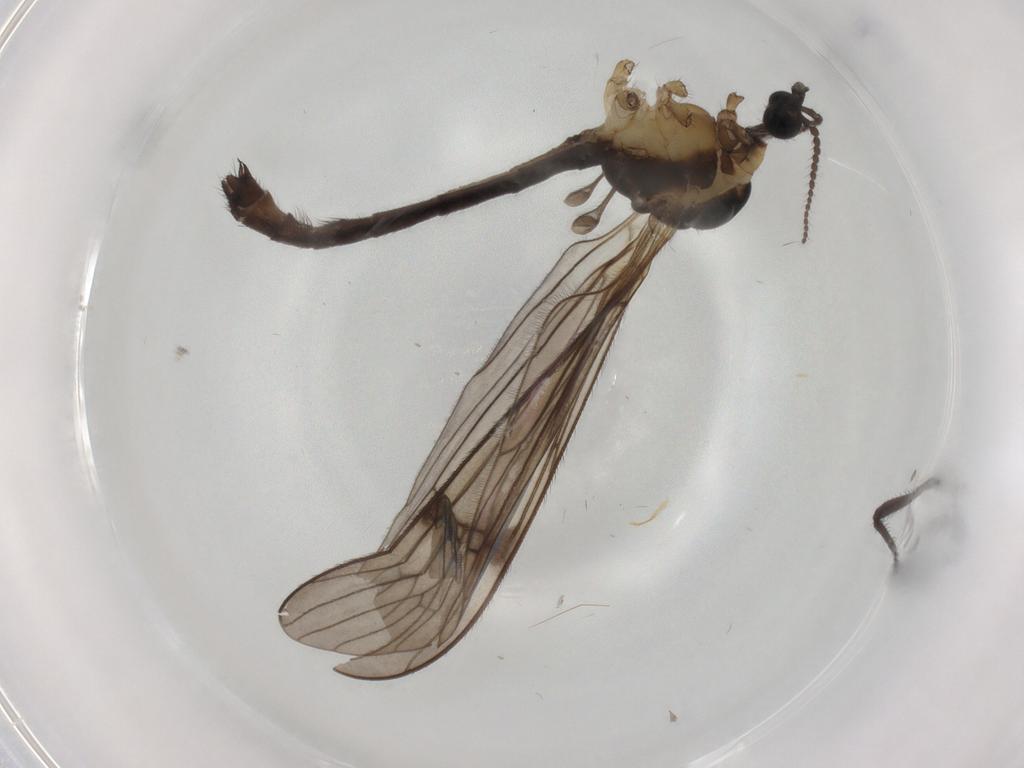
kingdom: Animalia
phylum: Arthropoda
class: Insecta
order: Diptera
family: Limoniidae
